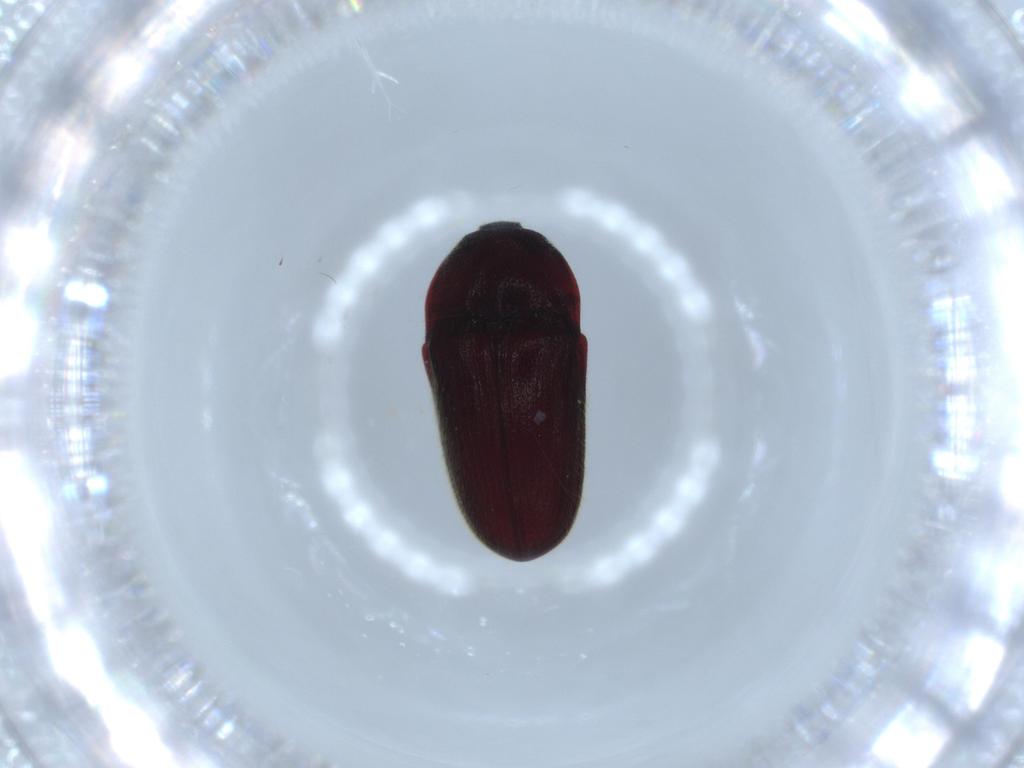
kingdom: Animalia
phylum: Arthropoda
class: Insecta
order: Coleoptera
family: Throscidae
